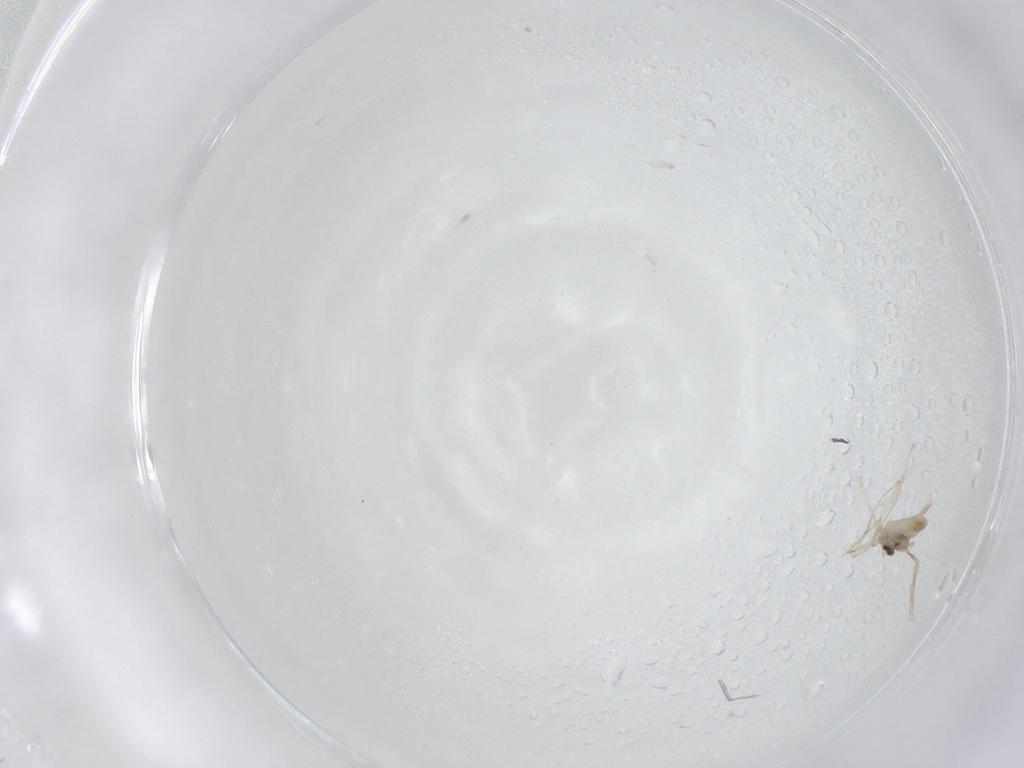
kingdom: Animalia
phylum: Arthropoda
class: Insecta
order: Diptera
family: Cecidomyiidae
